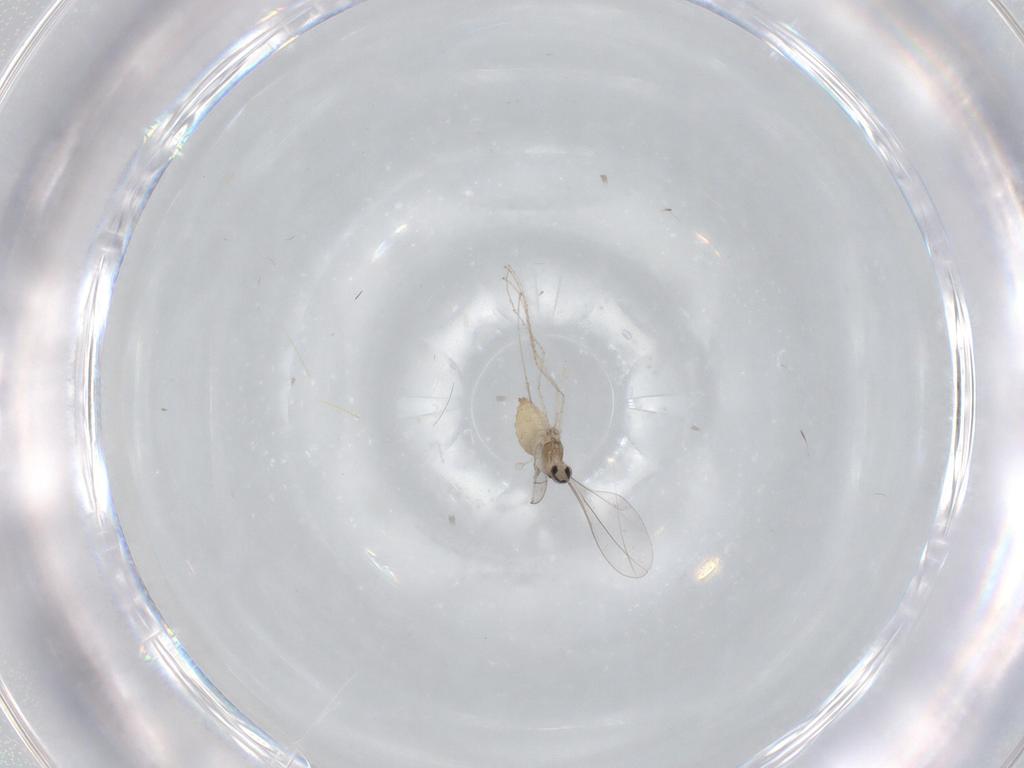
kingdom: Animalia
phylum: Arthropoda
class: Insecta
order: Diptera
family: Cecidomyiidae
